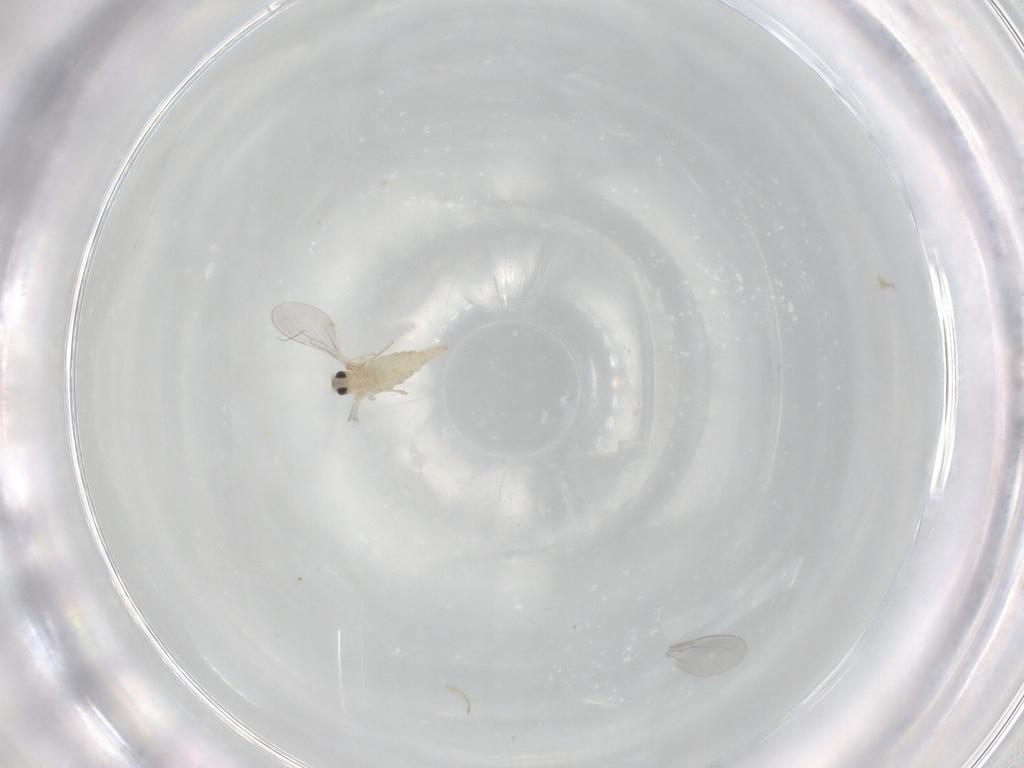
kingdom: Animalia
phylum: Arthropoda
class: Insecta
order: Diptera
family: Cecidomyiidae
